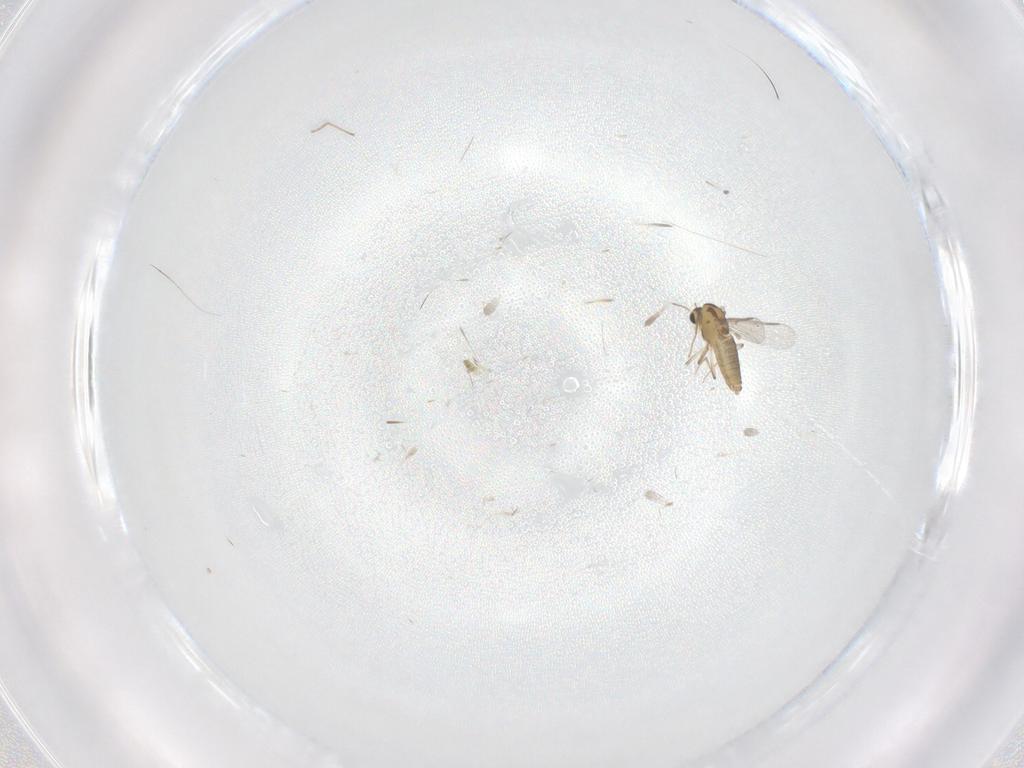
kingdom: Animalia
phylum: Arthropoda
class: Insecta
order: Diptera
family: Chironomidae
